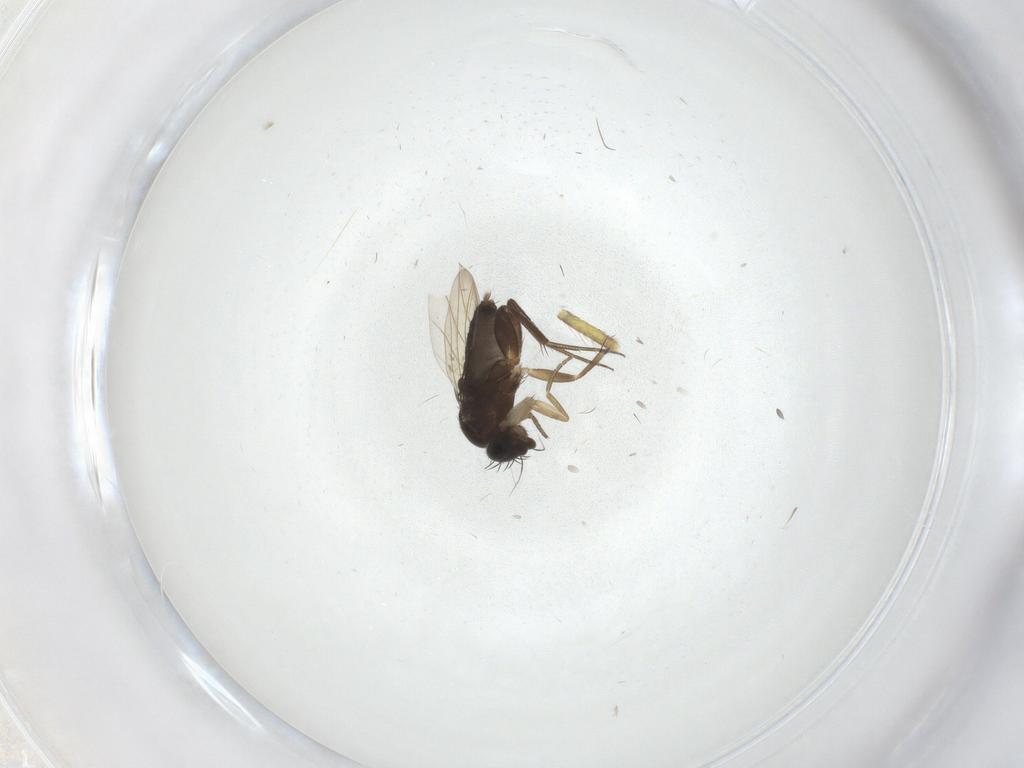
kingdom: Animalia
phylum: Arthropoda
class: Insecta
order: Diptera
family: Phoridae
